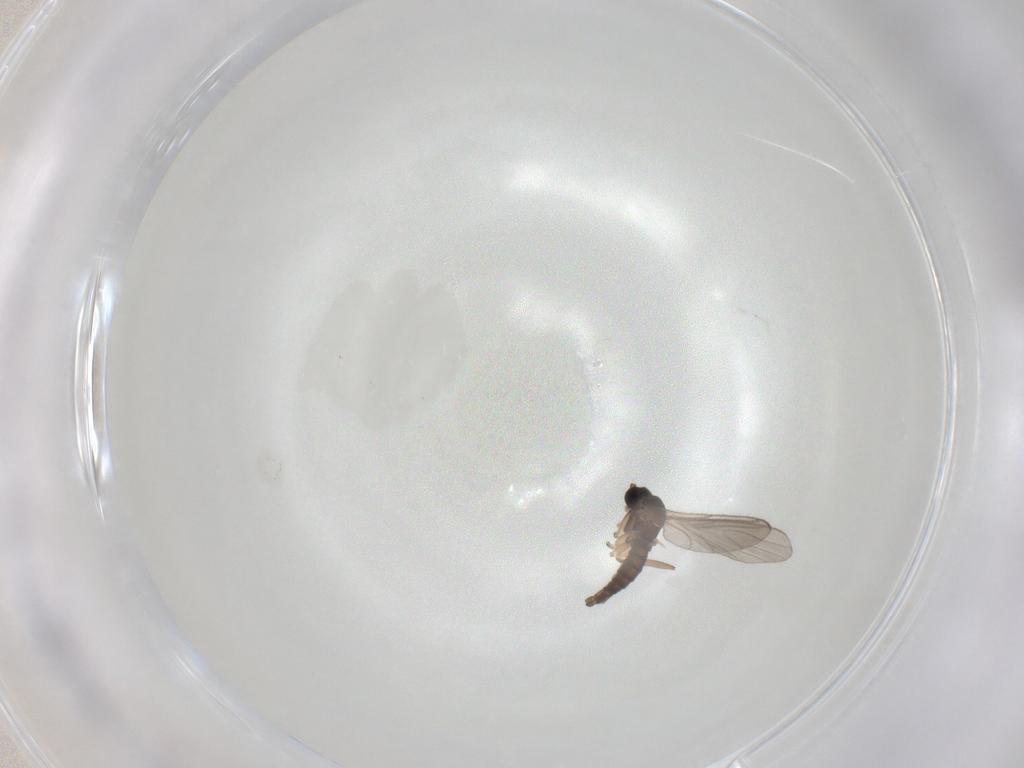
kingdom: Animalia
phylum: Arthropoda
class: Insecta
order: Diptera
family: Sciaridae
